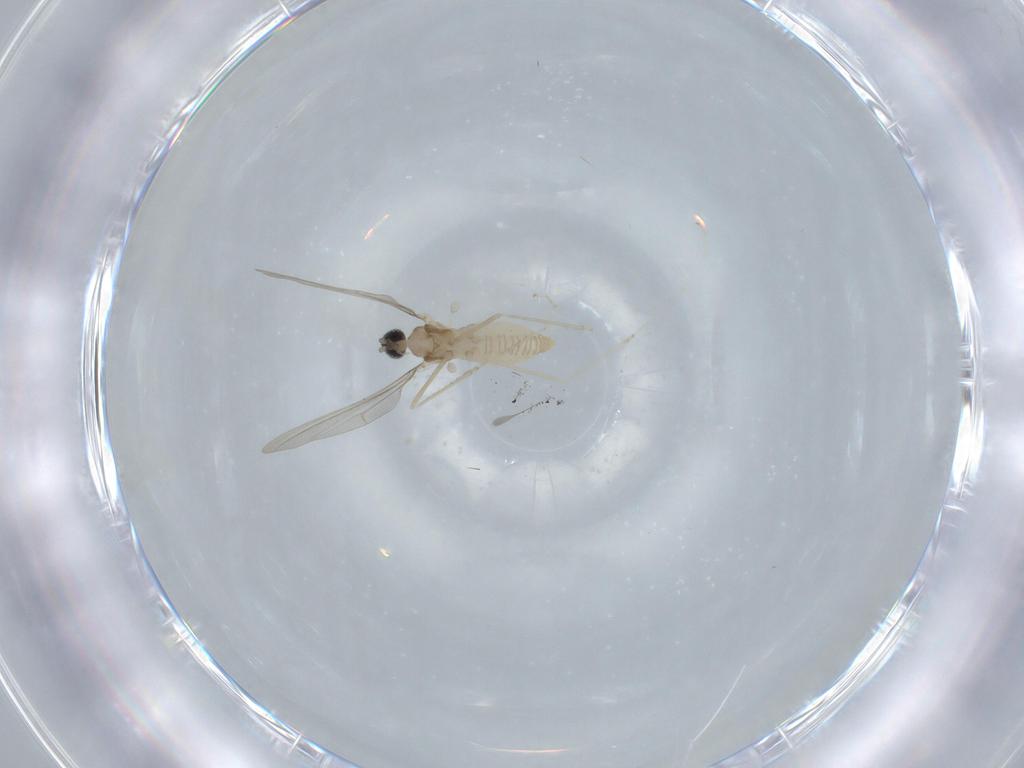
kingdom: Animalia
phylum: Arthropoda
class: Insecta
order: Diptera
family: Cecidomyiidae
